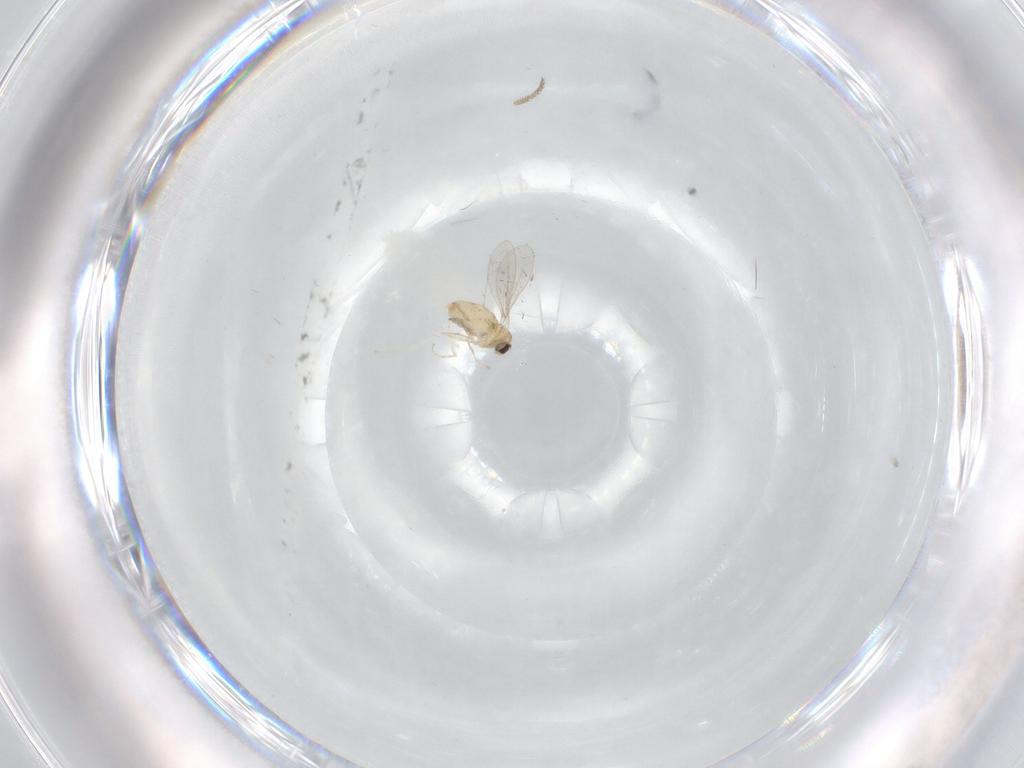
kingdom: Animalia
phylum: Arthropoda
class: Insecta
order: Diptera
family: Cecidomyiidae
